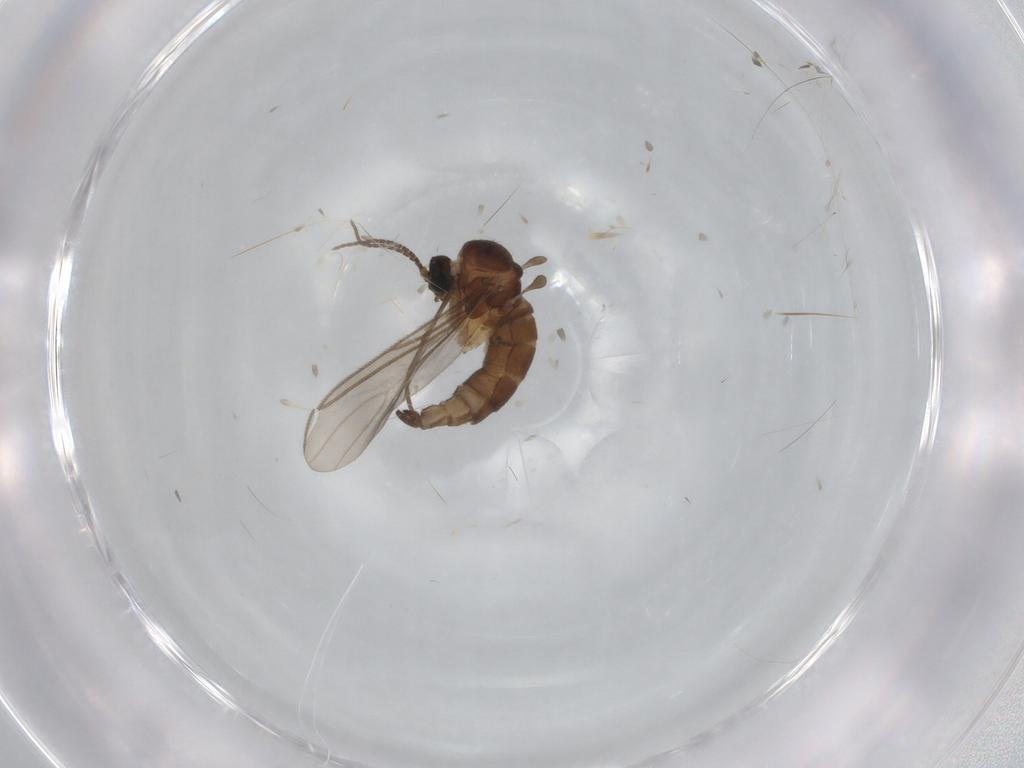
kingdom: Animalia
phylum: Arthropoda
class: Insecta
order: Diptera
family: Sciaridae
